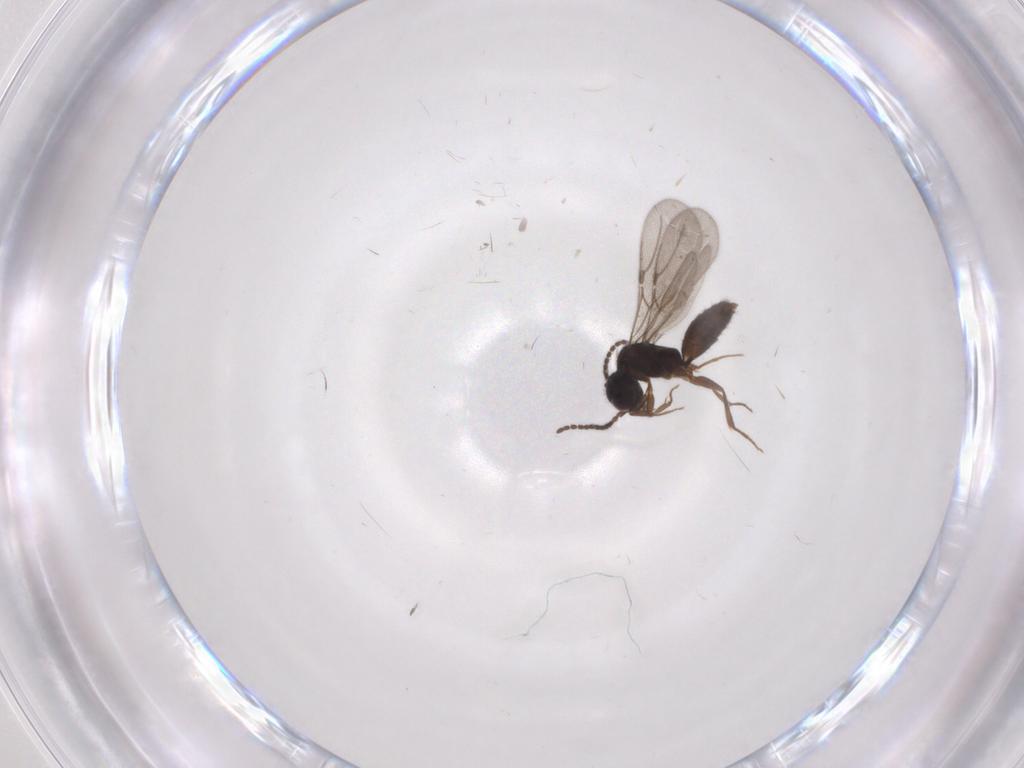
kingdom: Animalia
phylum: Arthropoda
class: Insecta
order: Hymenoptera
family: Bethylidae
